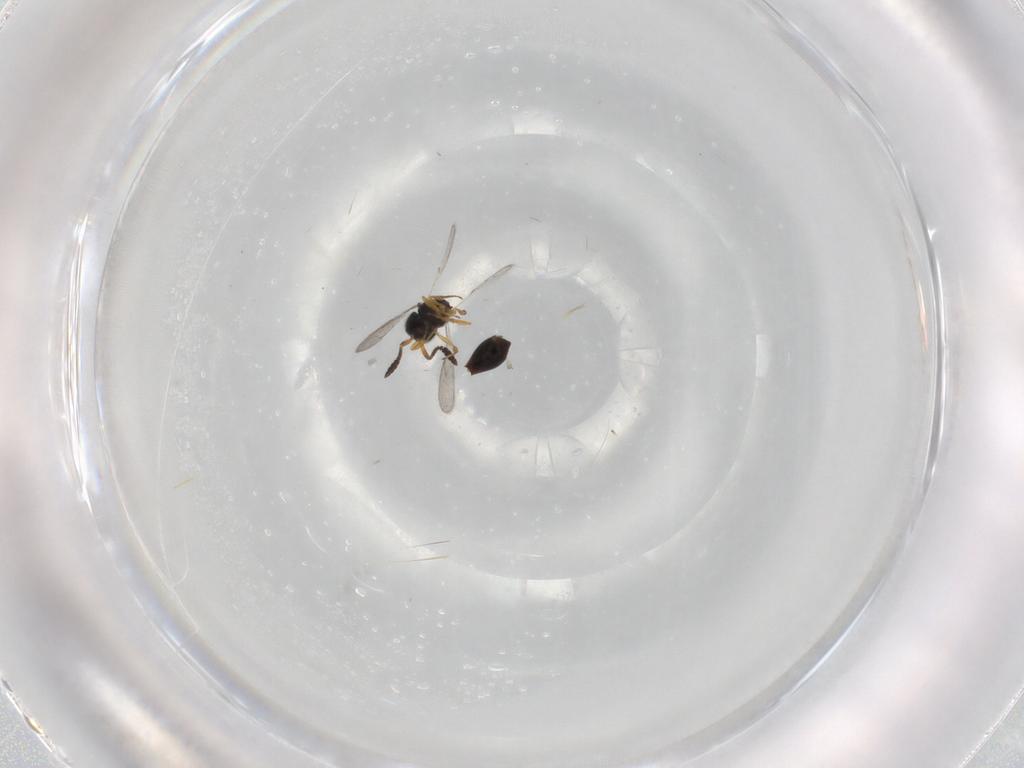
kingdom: Animalia
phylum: Arthropoda
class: Insecta
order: Hymenoptera
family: Scelionidae
